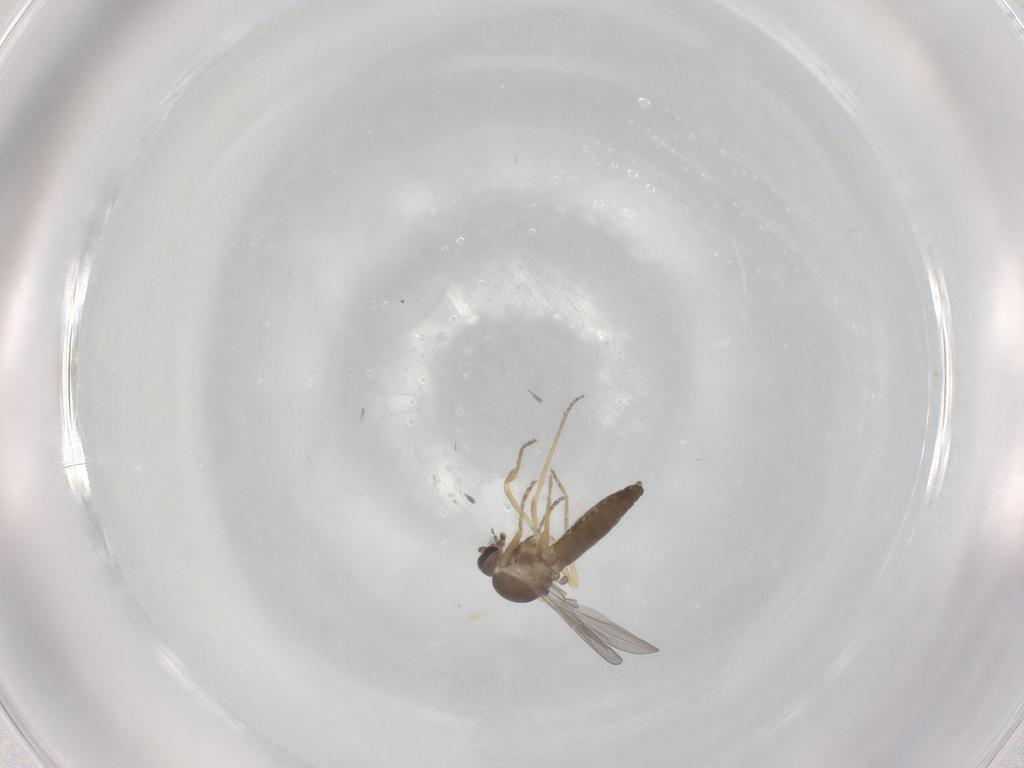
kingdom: Animalia
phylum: Arthropoda
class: Insecta
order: Diptera
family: Ceratopogonidae
